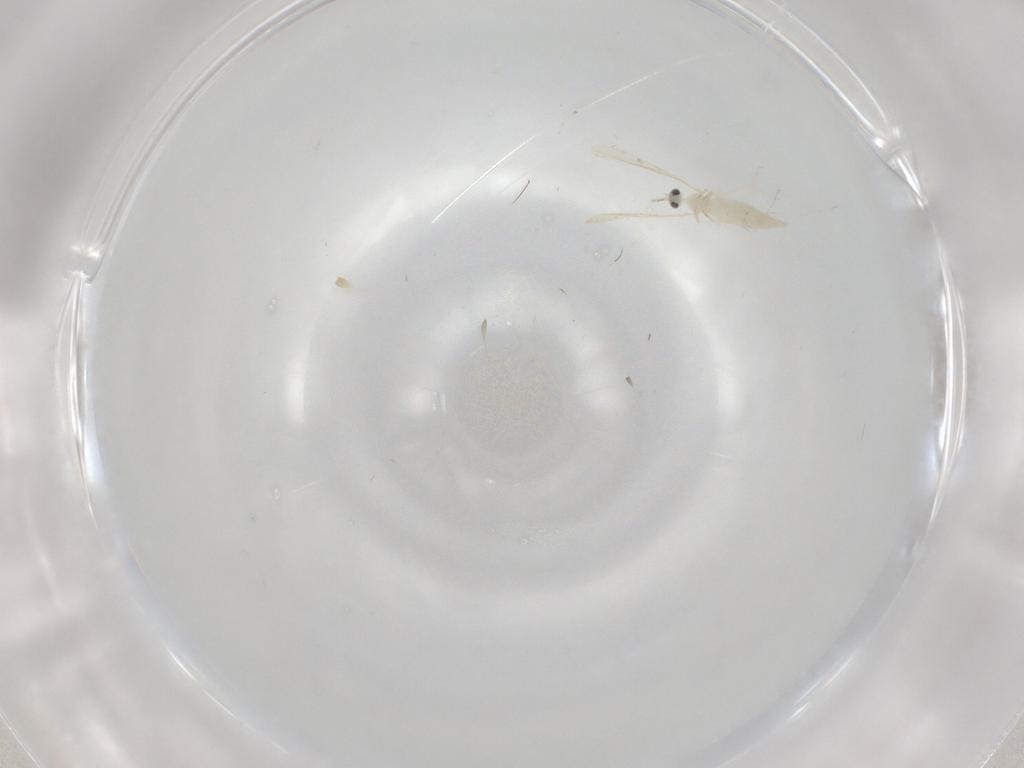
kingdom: Animalia
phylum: Arthropoda
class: Insecta
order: Diptera
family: Cecidomyiidae
